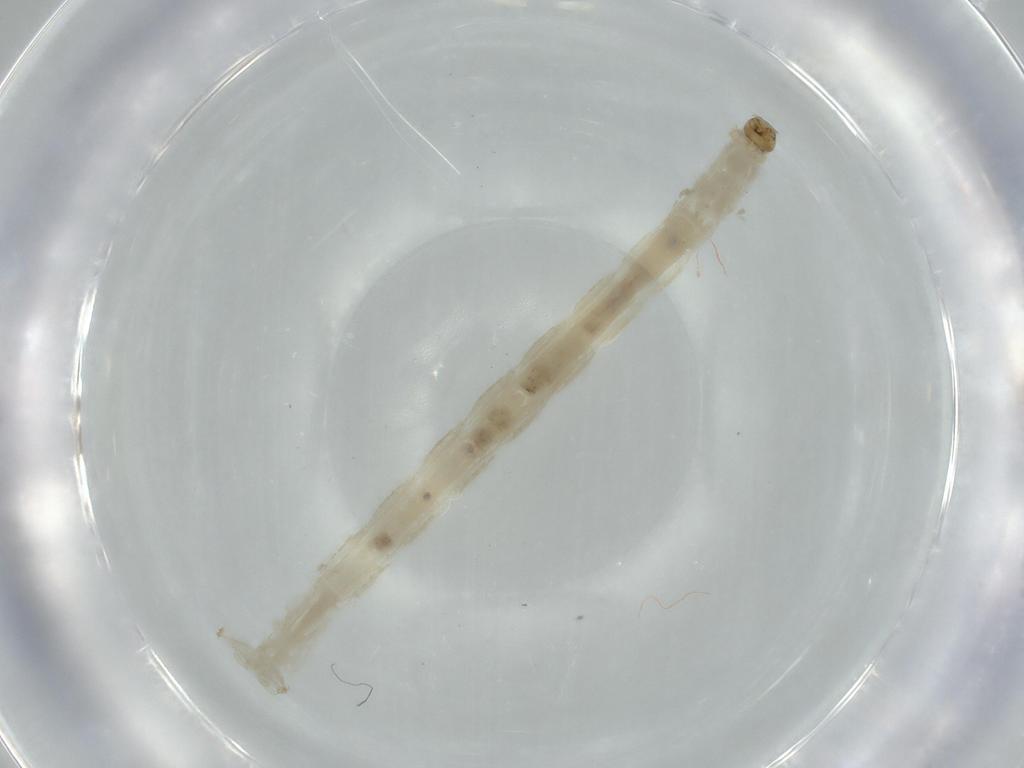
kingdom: Animalia
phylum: Arthropoda
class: Insecta
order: Diptera
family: Chironomidae
